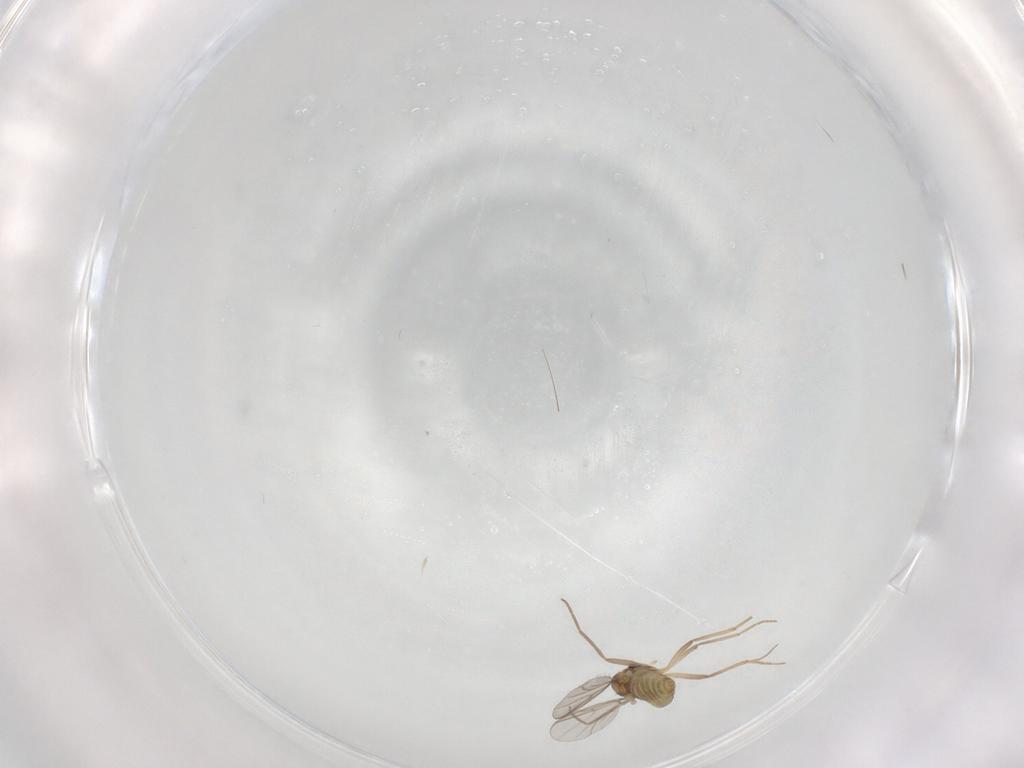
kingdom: Animalia
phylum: Arthropoda
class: Insecta
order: Diptera
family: Chironomidae
